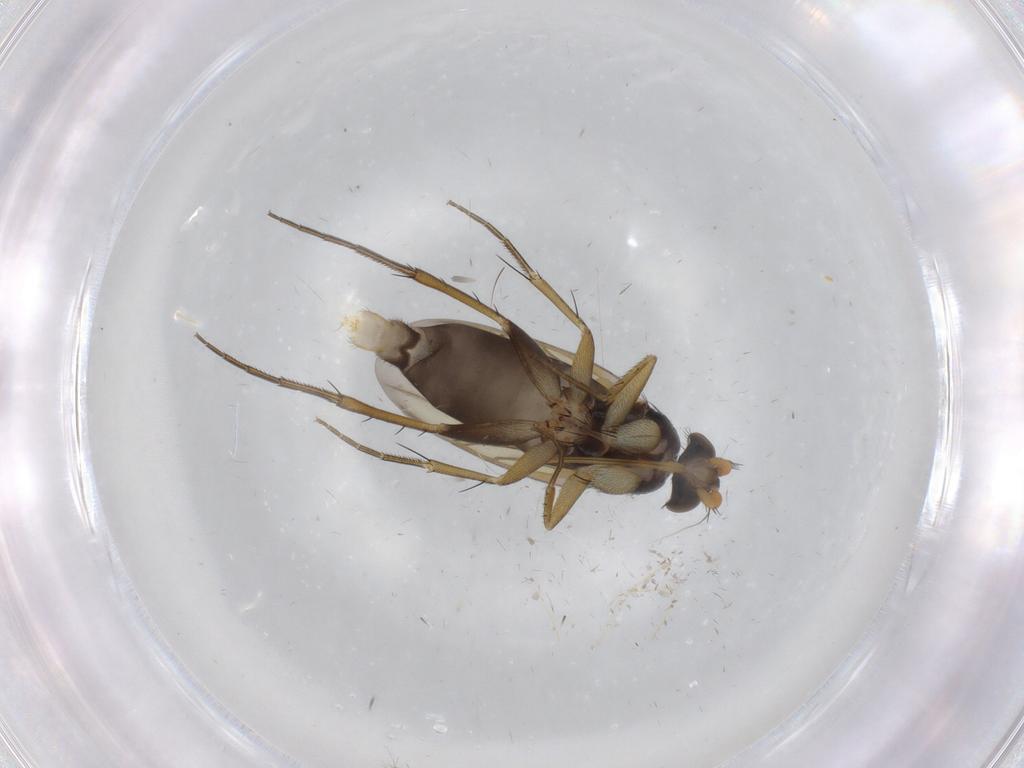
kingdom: Animalia
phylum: Arthropoda
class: Insecta
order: Diptera
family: Phoridae
